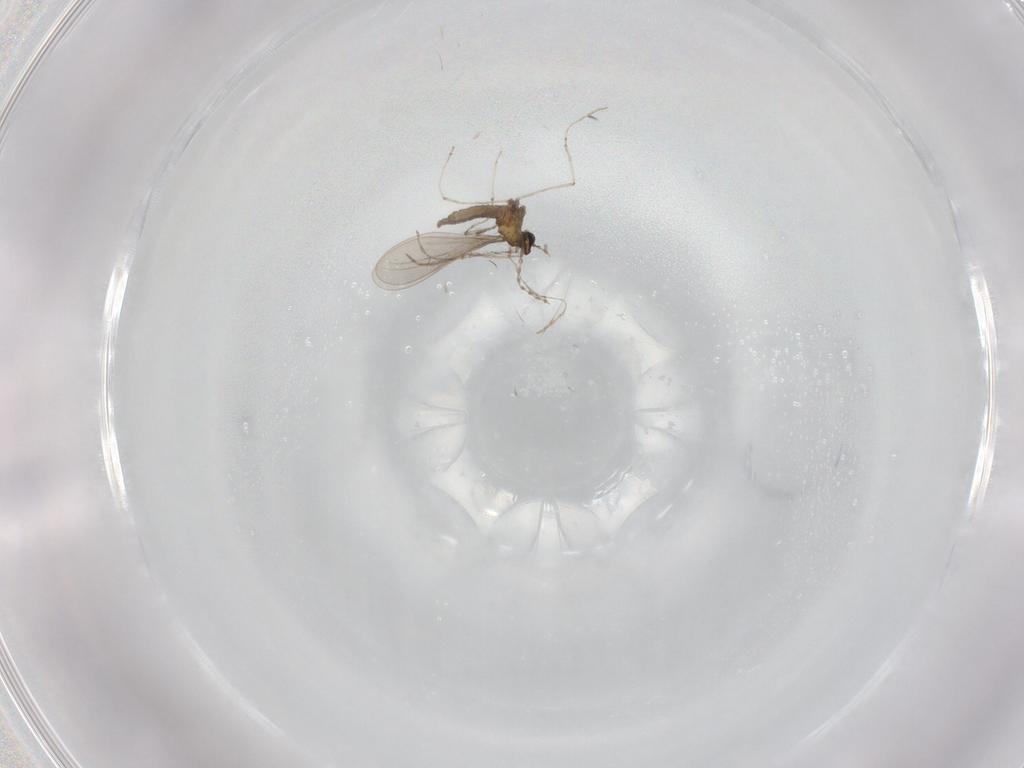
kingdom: Animalia
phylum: Arthropoda
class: Insecta
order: Diptera
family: Cecidomyiidae
